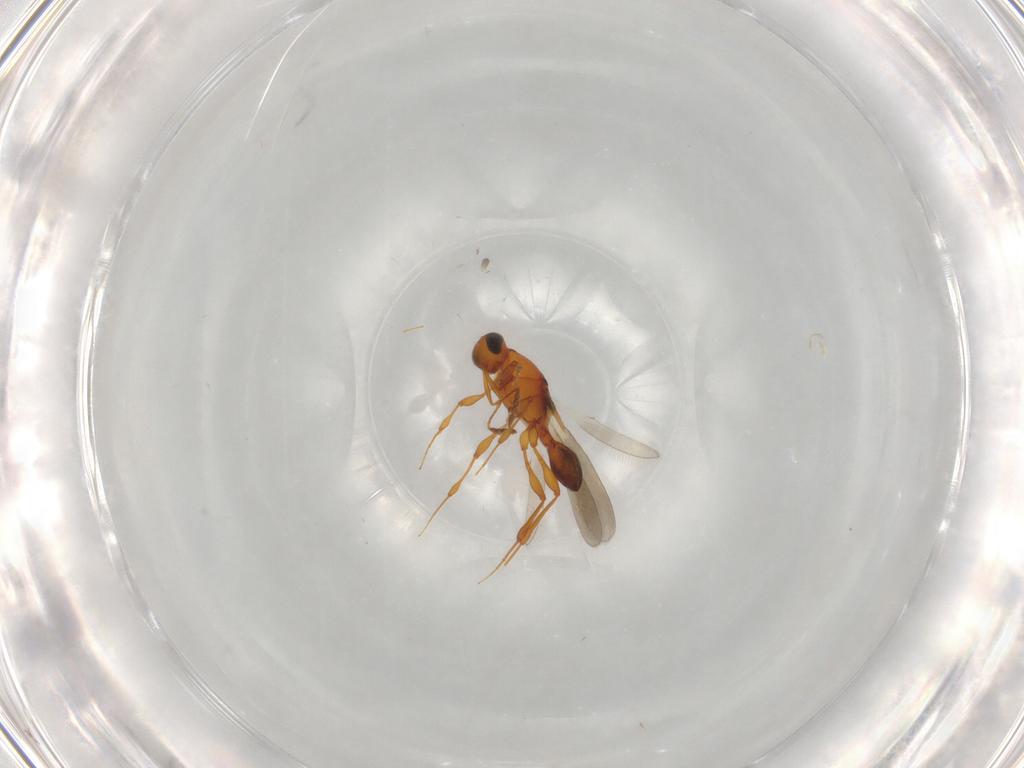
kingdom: Animalia
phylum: Arthropoda
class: Insecta
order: Hymenoptera
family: Platygastridae
